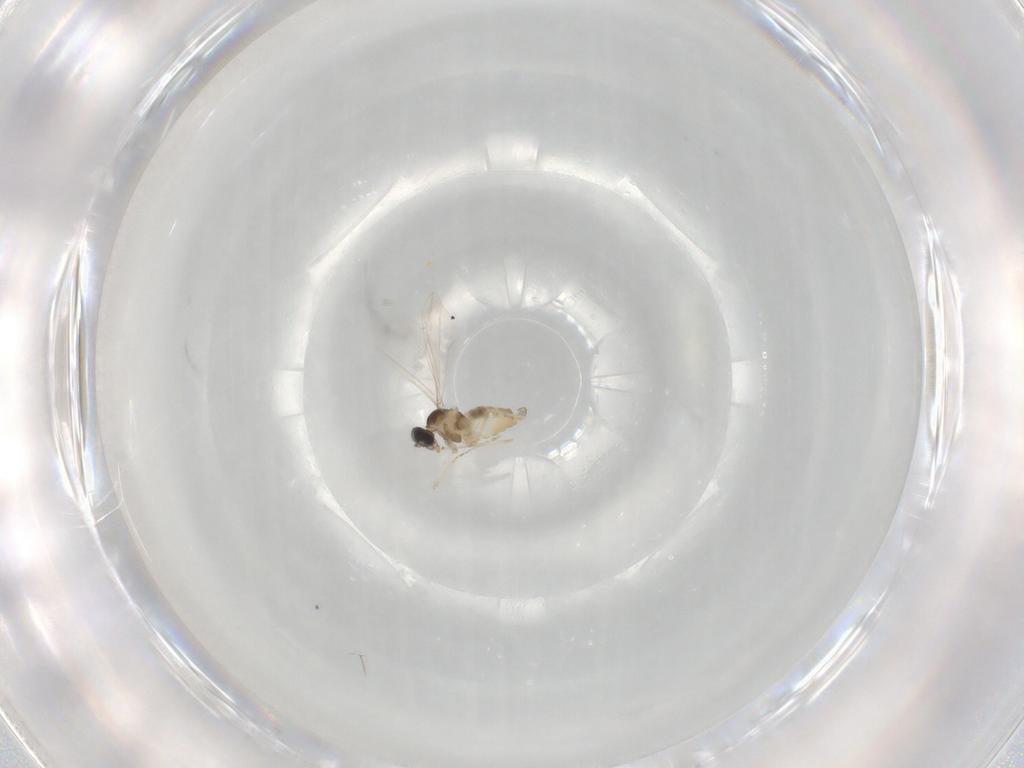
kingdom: Animalia
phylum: Arthropoda
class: Insecta
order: Diptera
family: Cecidomyiidae
